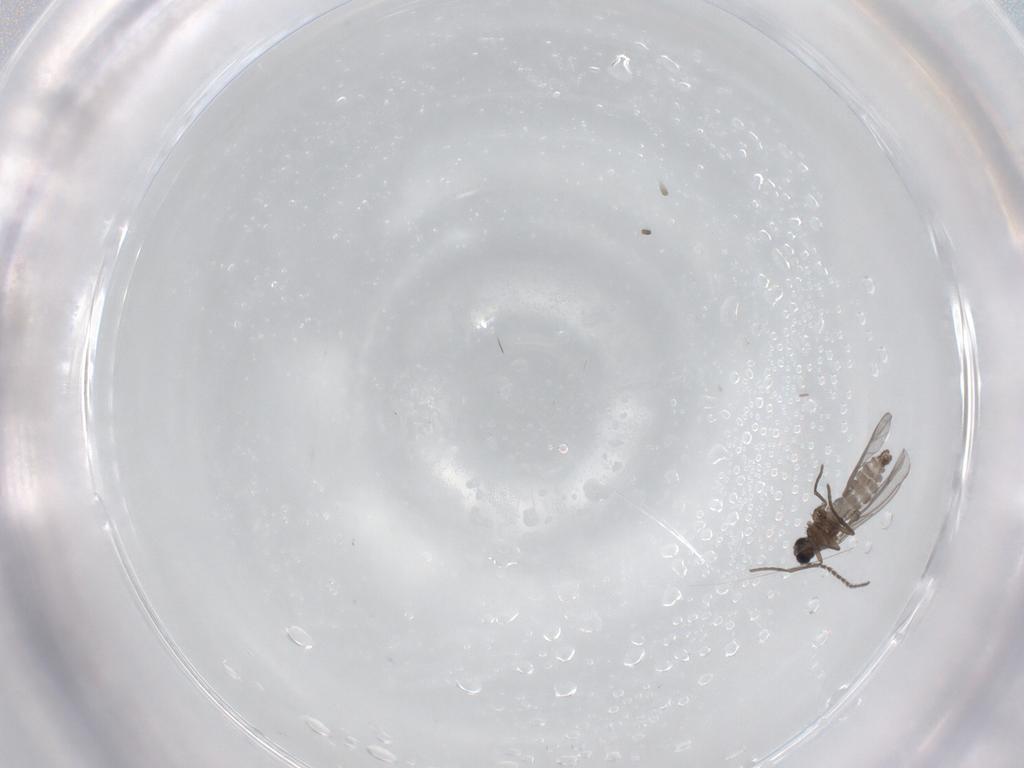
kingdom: Animalia
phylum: Arthropoda
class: Insecta
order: Diptera
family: Sciaridae
